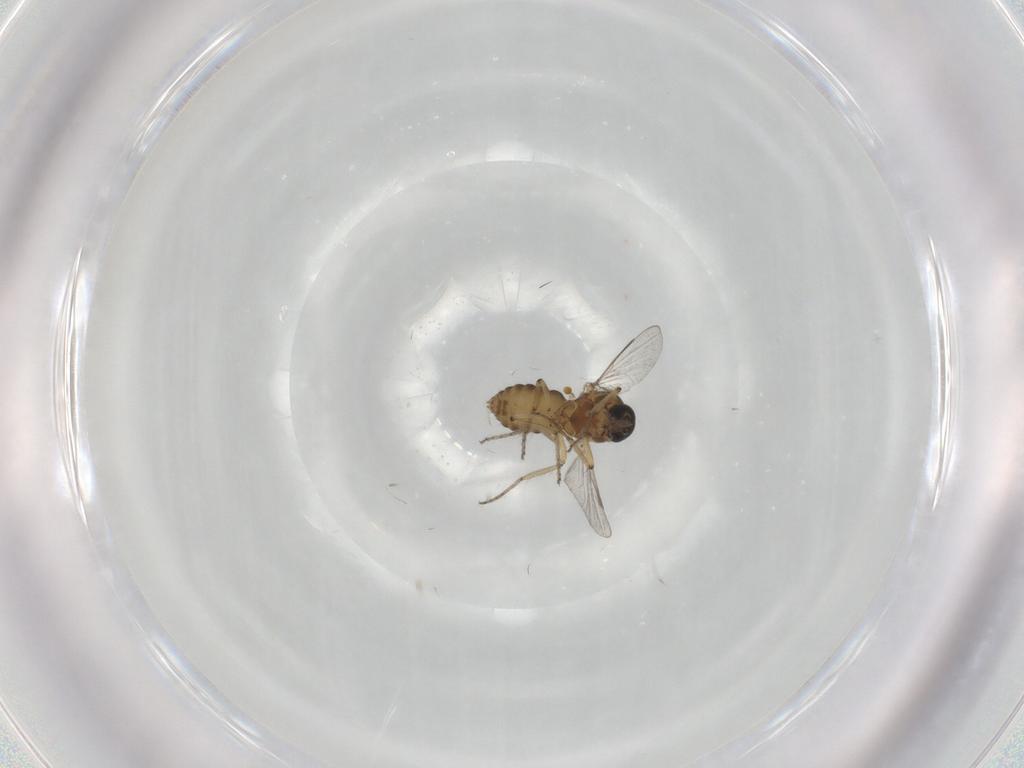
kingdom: Animalia
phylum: Arthropoda
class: Insecta
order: Diptera
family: Ceratopogonidae
